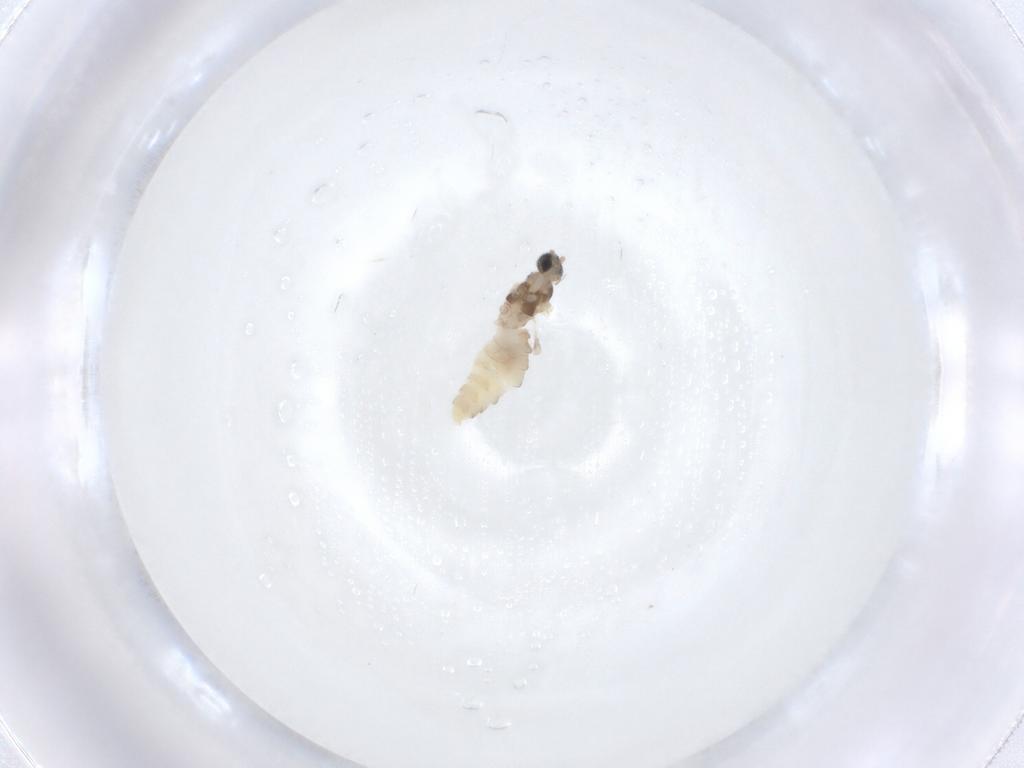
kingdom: Animalia
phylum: Arthropoda
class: Insecta
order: Diptera
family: Cecidomyiidae
